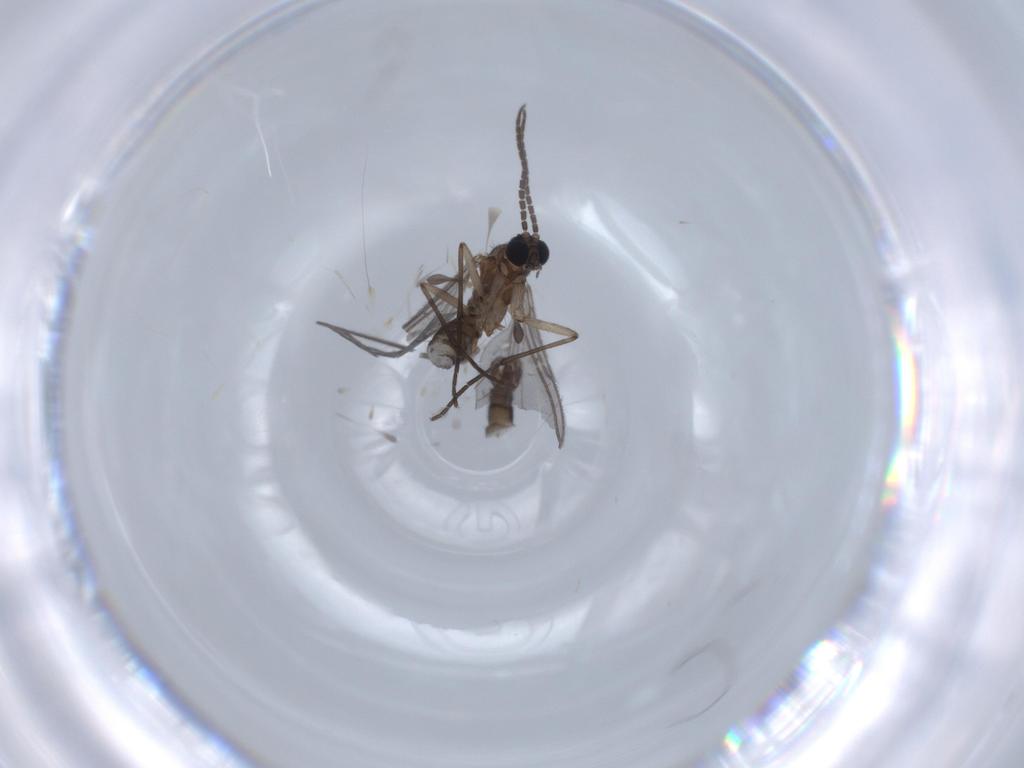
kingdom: Animalia
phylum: Arthropoda
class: Insecta
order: Diptera
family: Sciaridae
